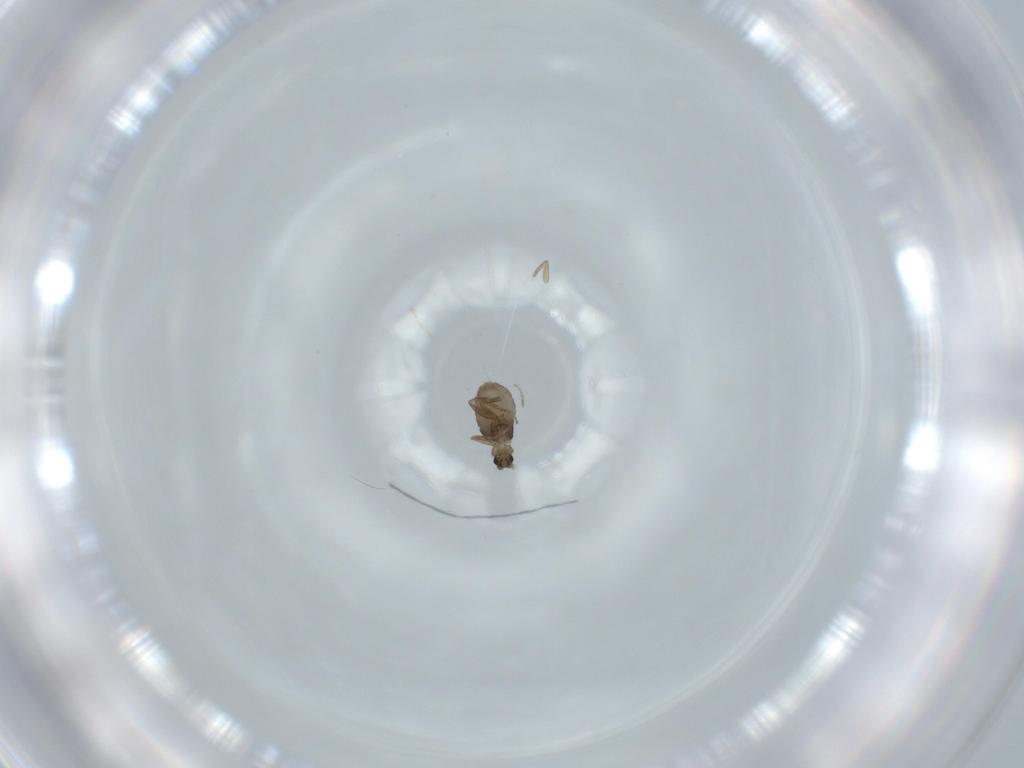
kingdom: Animalia
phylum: Arthropoda
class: Insecta
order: Diptera
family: Phoridae
